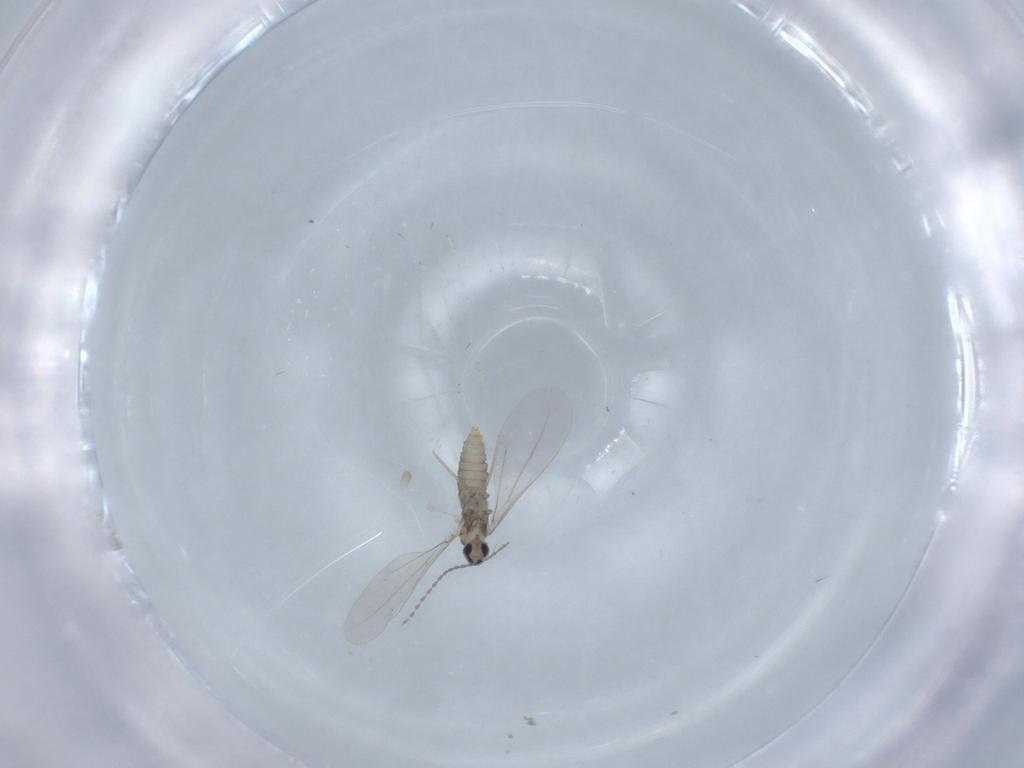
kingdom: Animalia
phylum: Arthropoda
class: Insecta
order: Diptera
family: Cecidomyiidae
